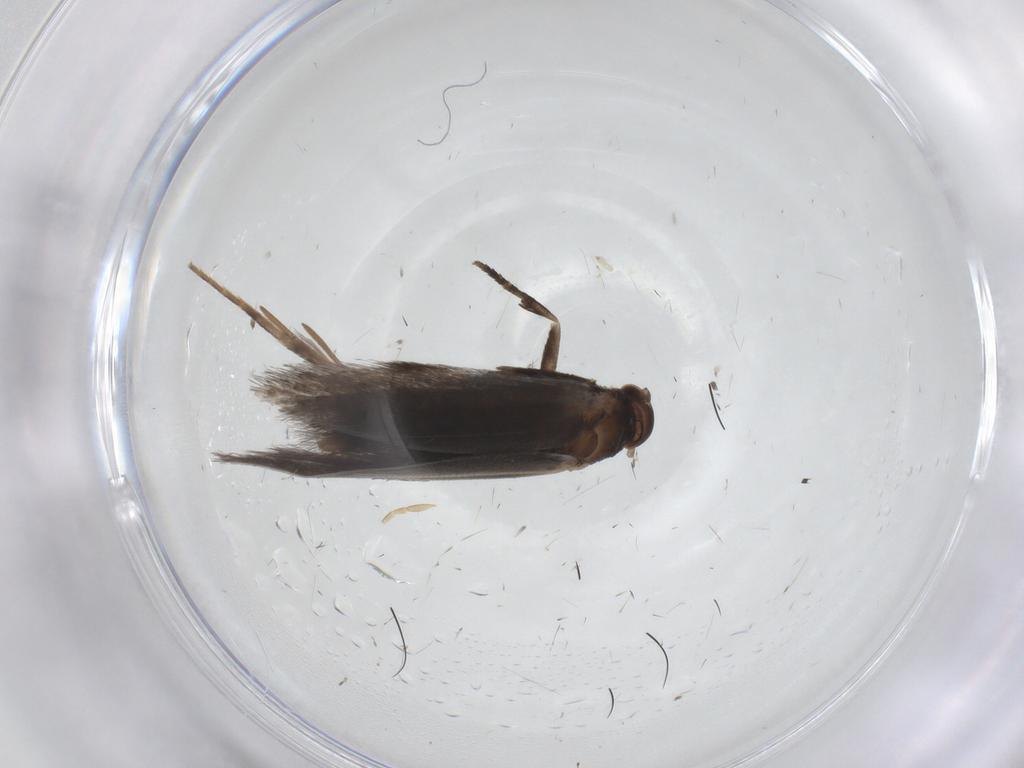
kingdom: Animalia
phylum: Arthropoda
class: Insecta
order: Lepidoptera
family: Elachistidae
